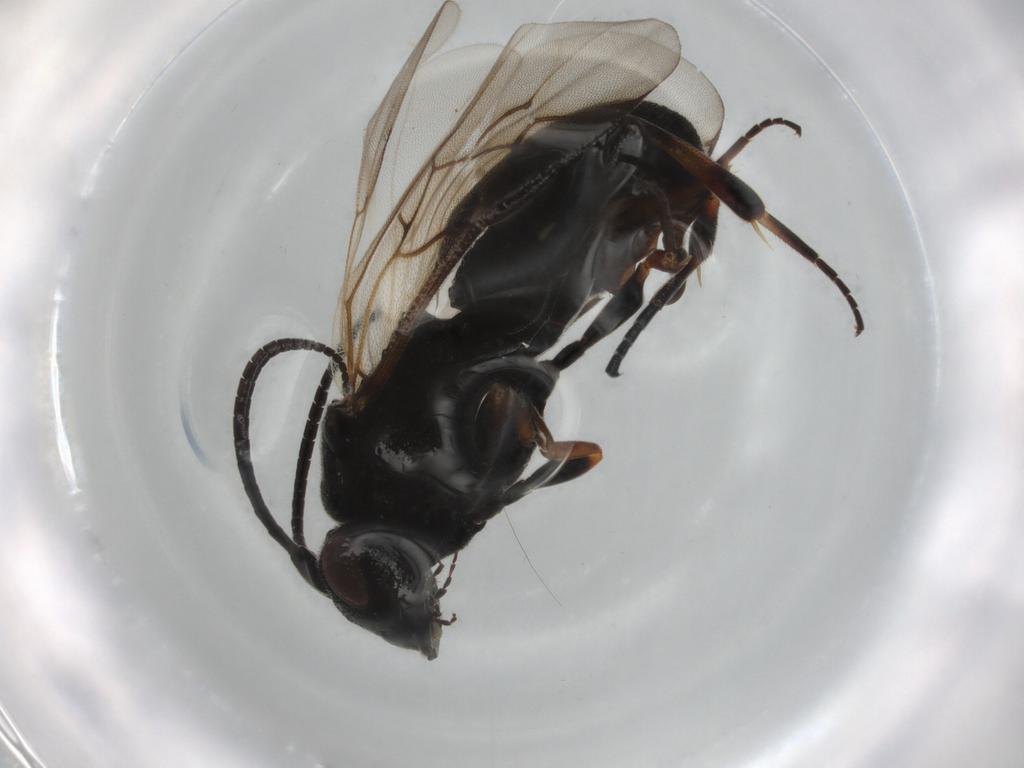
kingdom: Animalia
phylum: Arthropoda
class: Insecta
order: Hymenoptera
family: Braconidae
